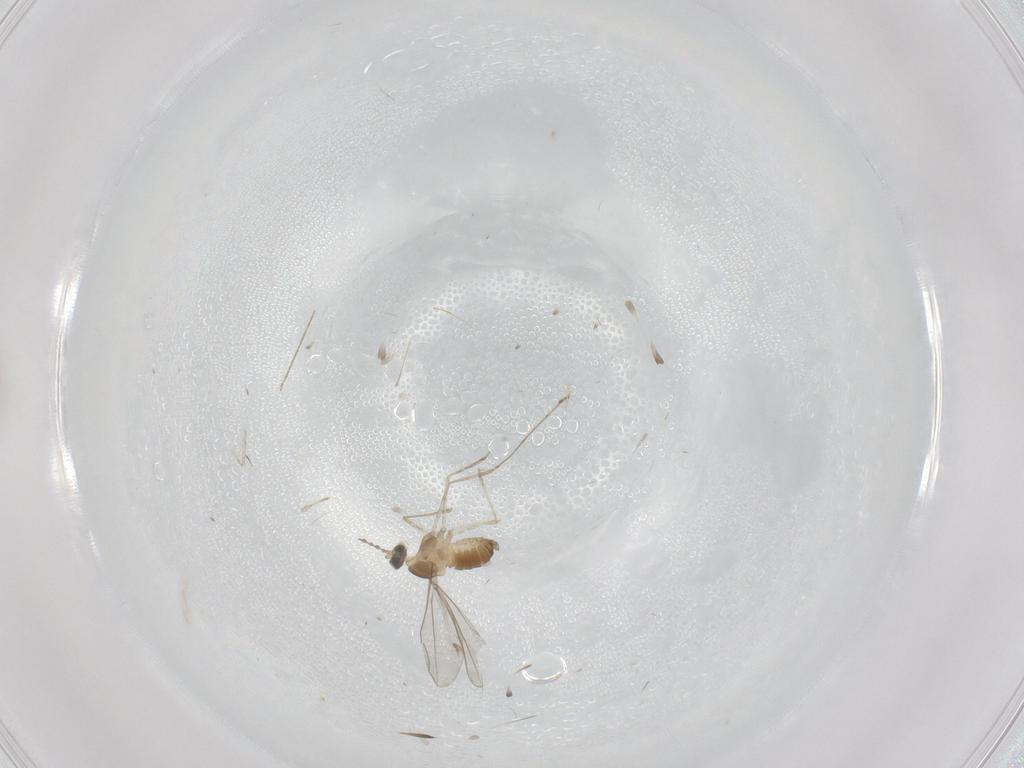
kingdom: Animalia
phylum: Arthropoda
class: Insecta
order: Diptera
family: Cecidomyiidae
